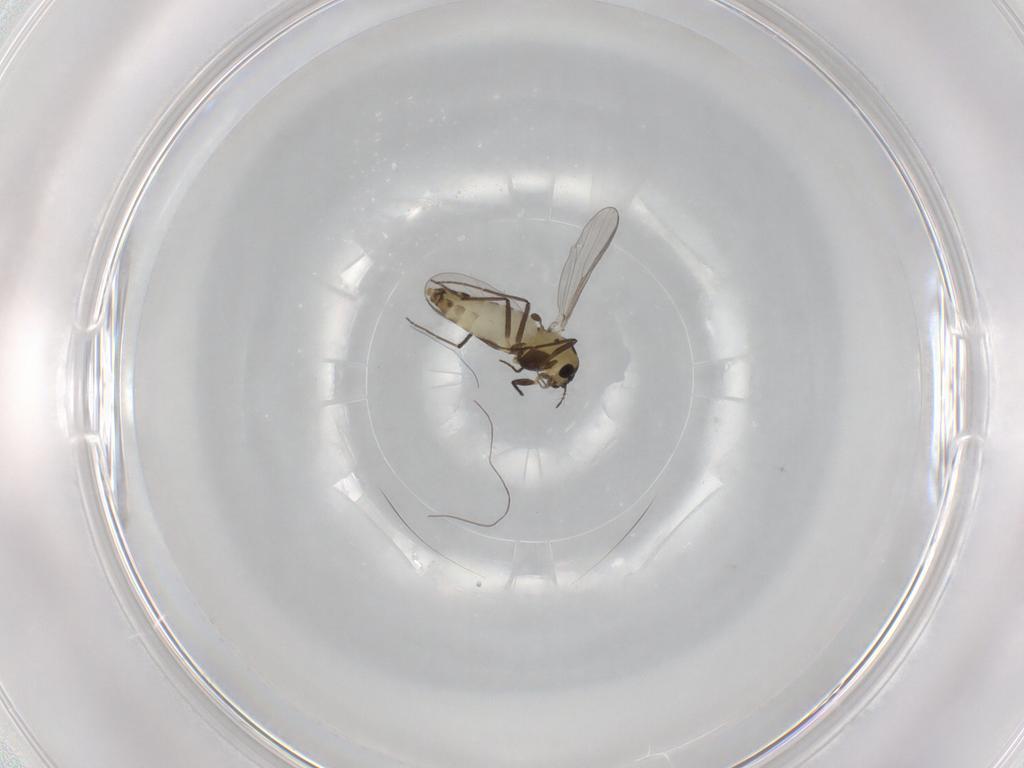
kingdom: Animalia
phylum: Arthropoda
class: Insecta
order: Diptera
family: Chironomidae
